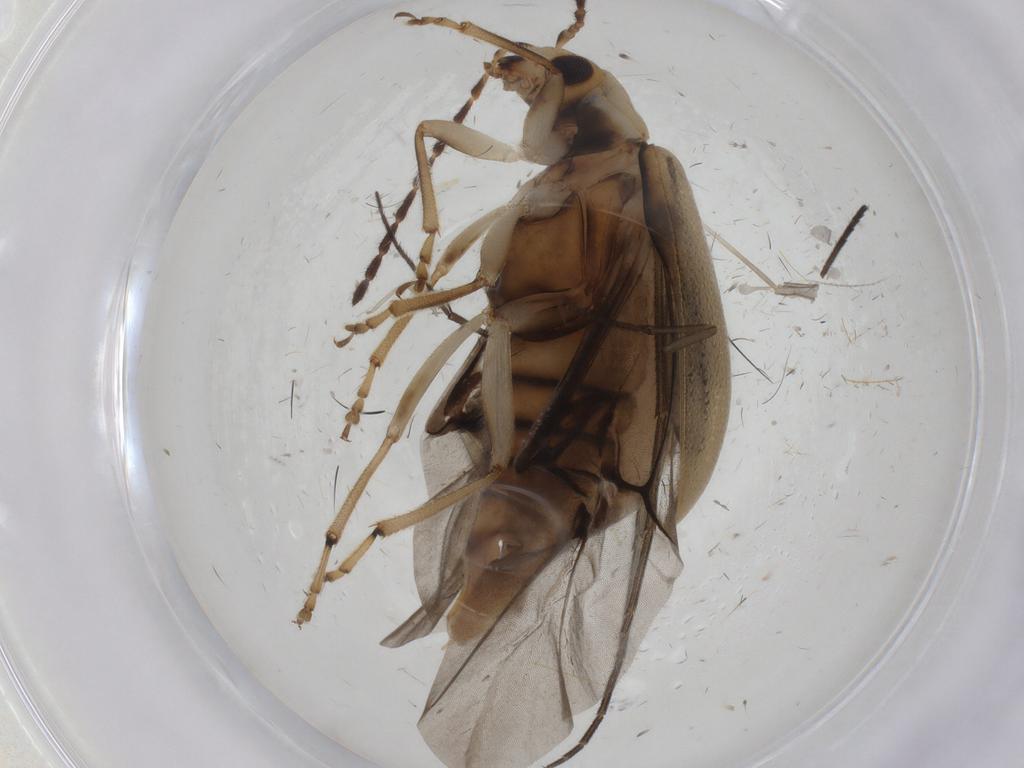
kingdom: Animalia
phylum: Arthropoda
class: Insecta
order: Coleoptera
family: Chrysomelidae
